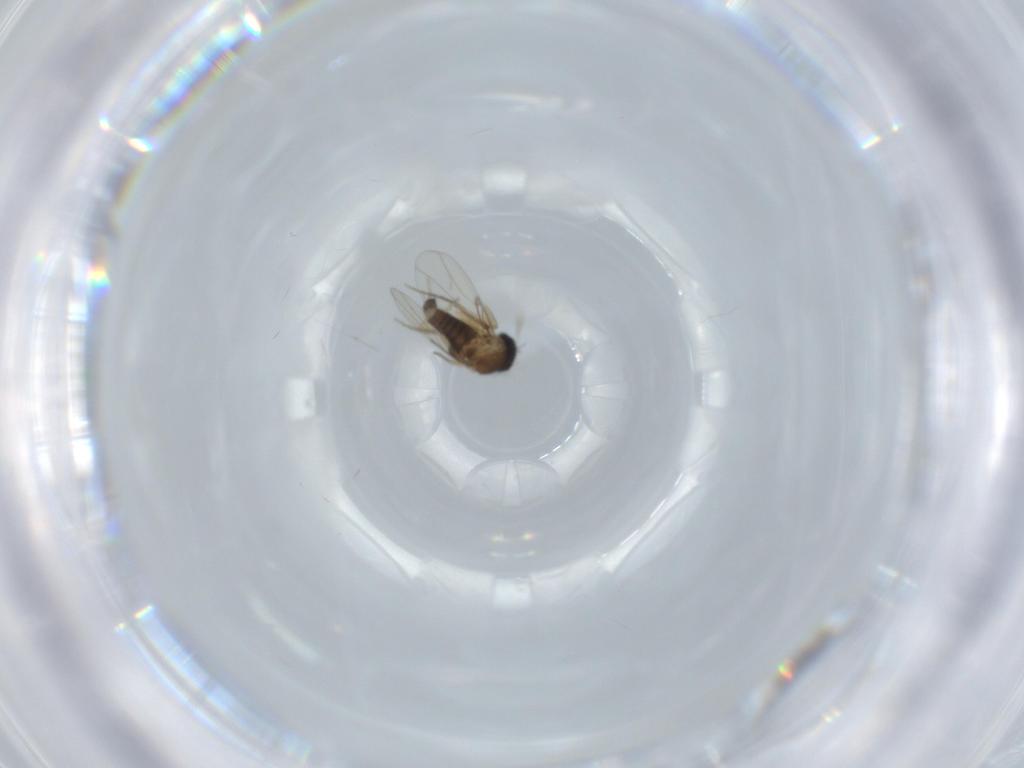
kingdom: Animalia
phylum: Arthropoda
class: Insecta
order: Diptera
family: Phoridae
